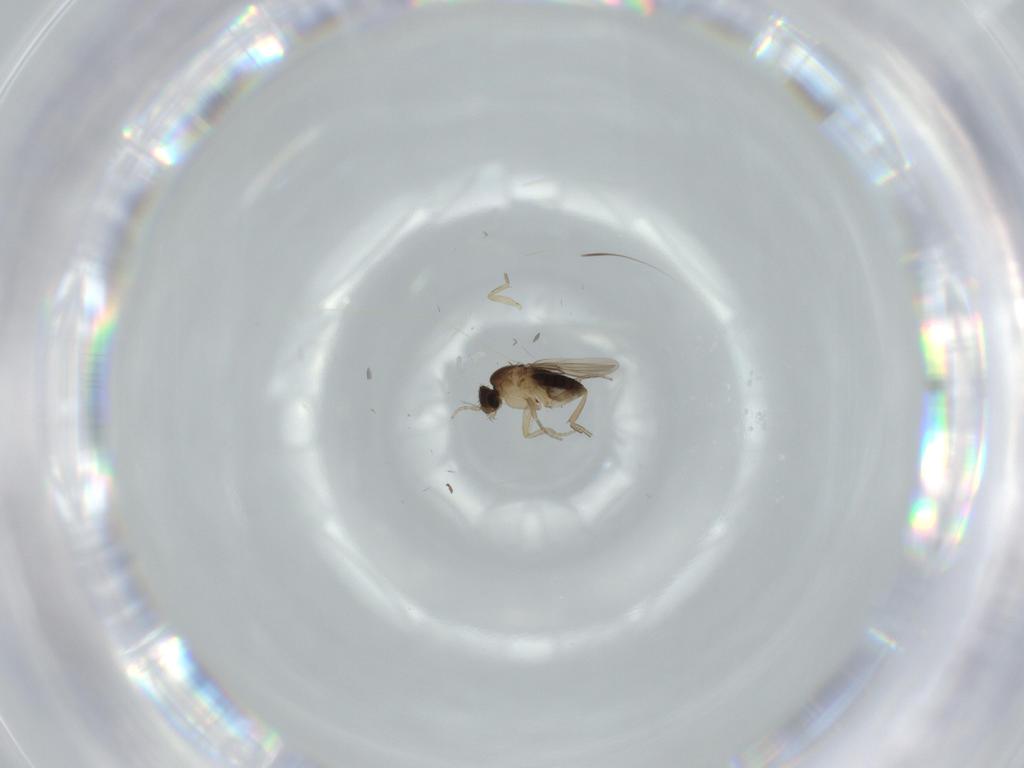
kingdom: Animalia
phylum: Arthropoda
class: Insecta
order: Diptera
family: Phoridae
